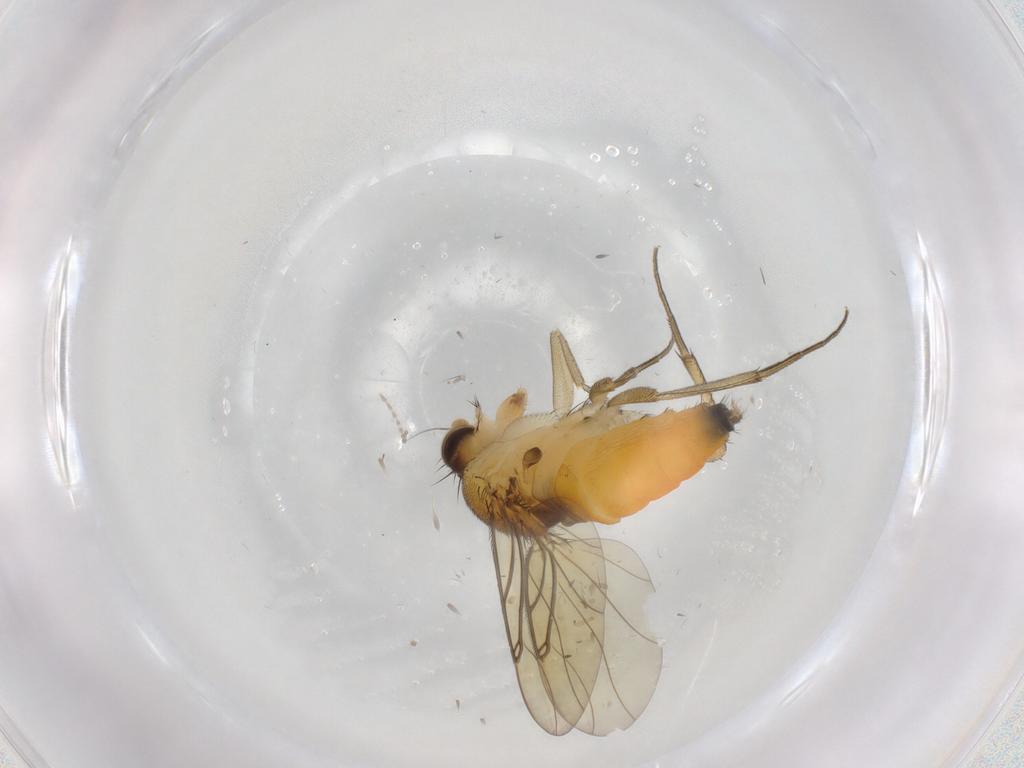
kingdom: Animalia
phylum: Arthropoda
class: Insecta
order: Diptera
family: Phoridae
